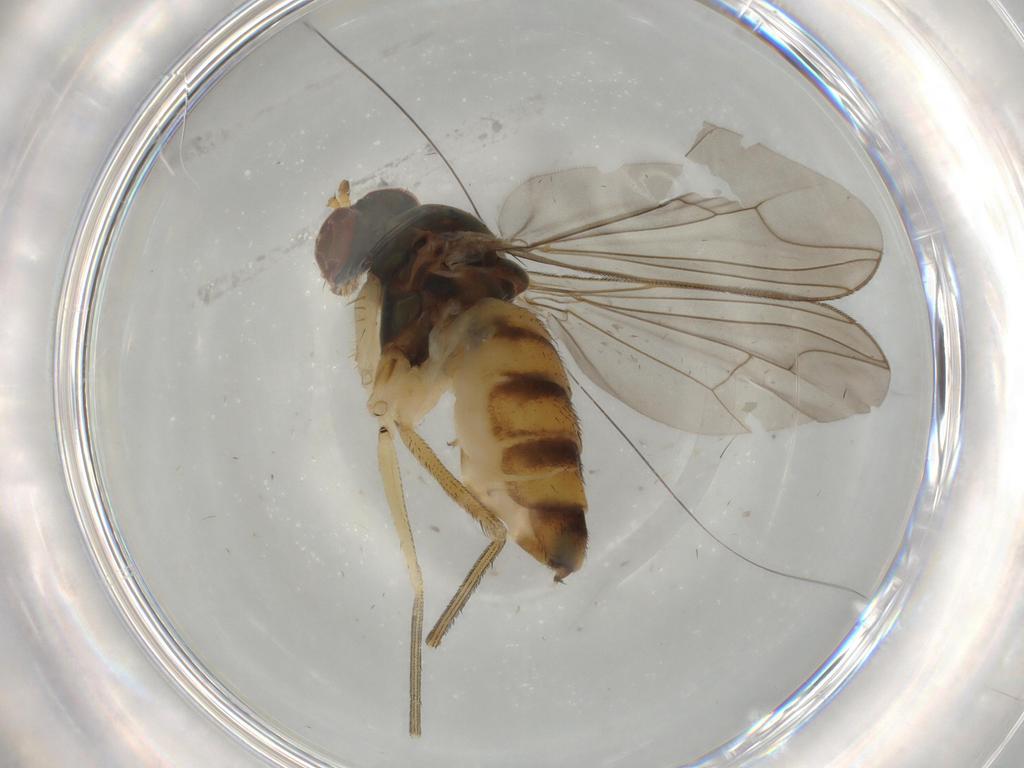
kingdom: Animalia
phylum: Arthropoda
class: Insecta
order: Diptera
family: Dolichopodidae
